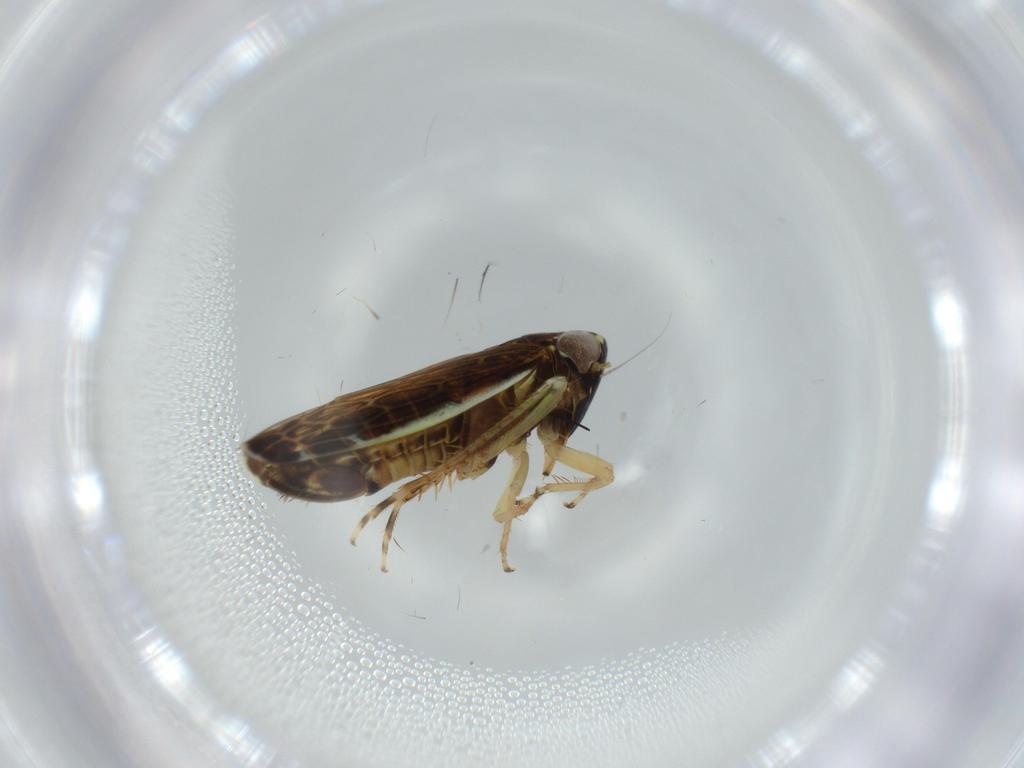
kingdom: Animalia
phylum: Arthropoda
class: Insecta
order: Hemiptera
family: Cicadellidae
